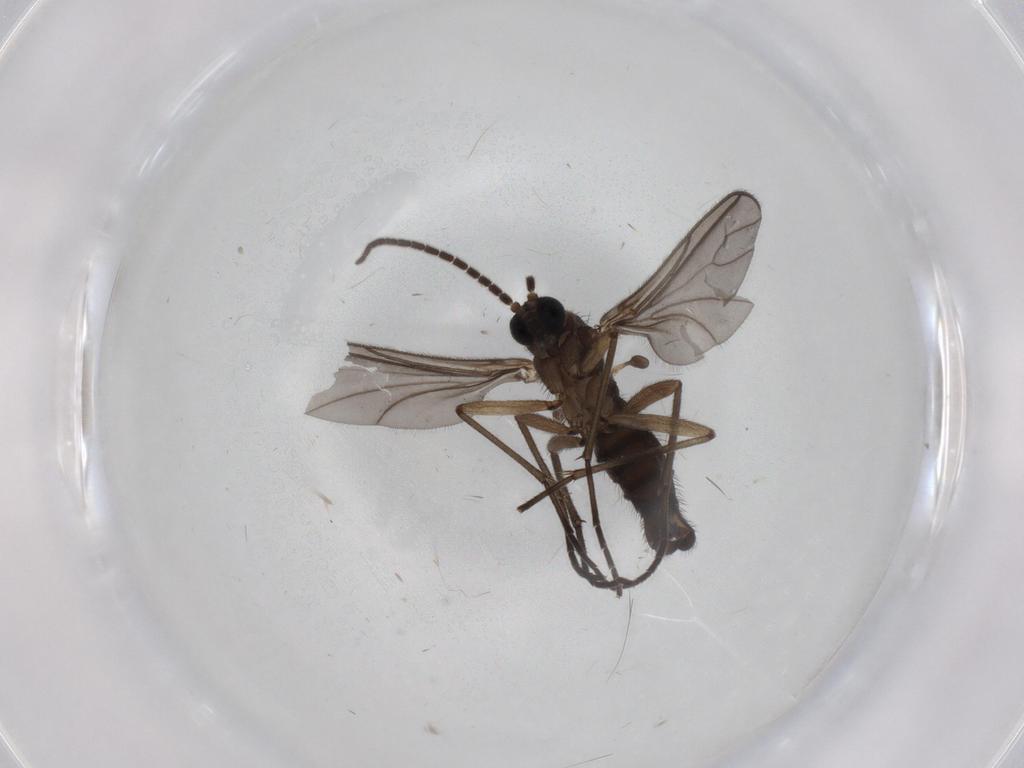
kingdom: Animalia
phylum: Arthropoda
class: Insecta
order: Diptera
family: Sciaridae
